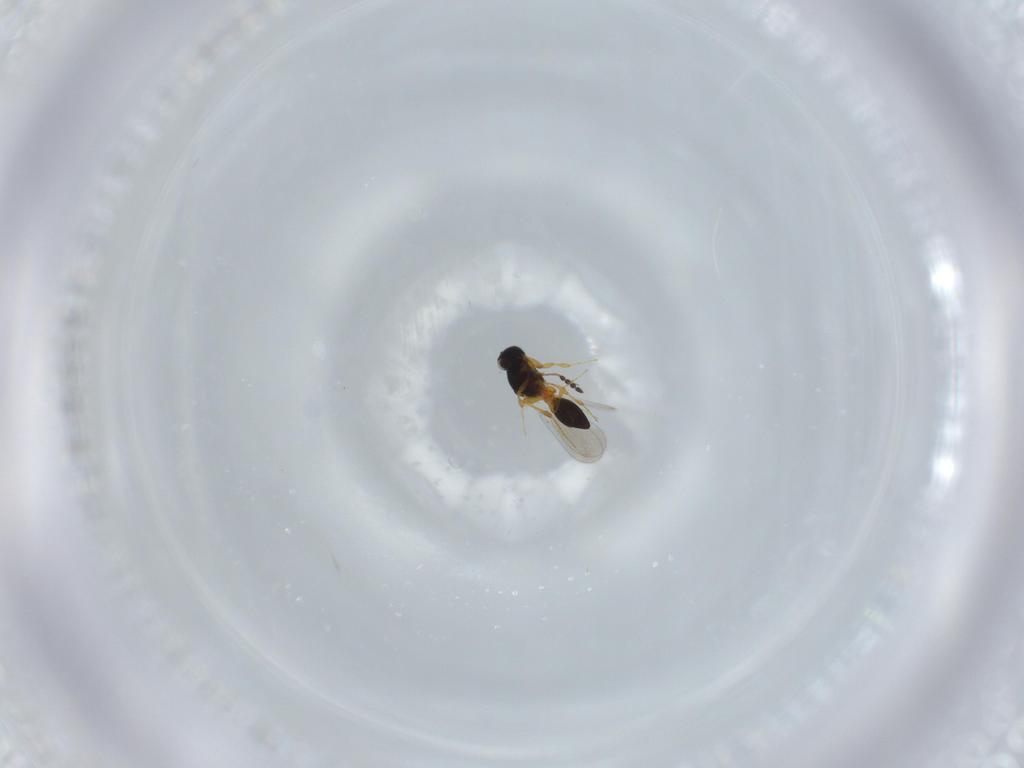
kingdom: Animalia
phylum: Arthropoda
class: Insecta
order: Hymenoptera
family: Platygastridae
